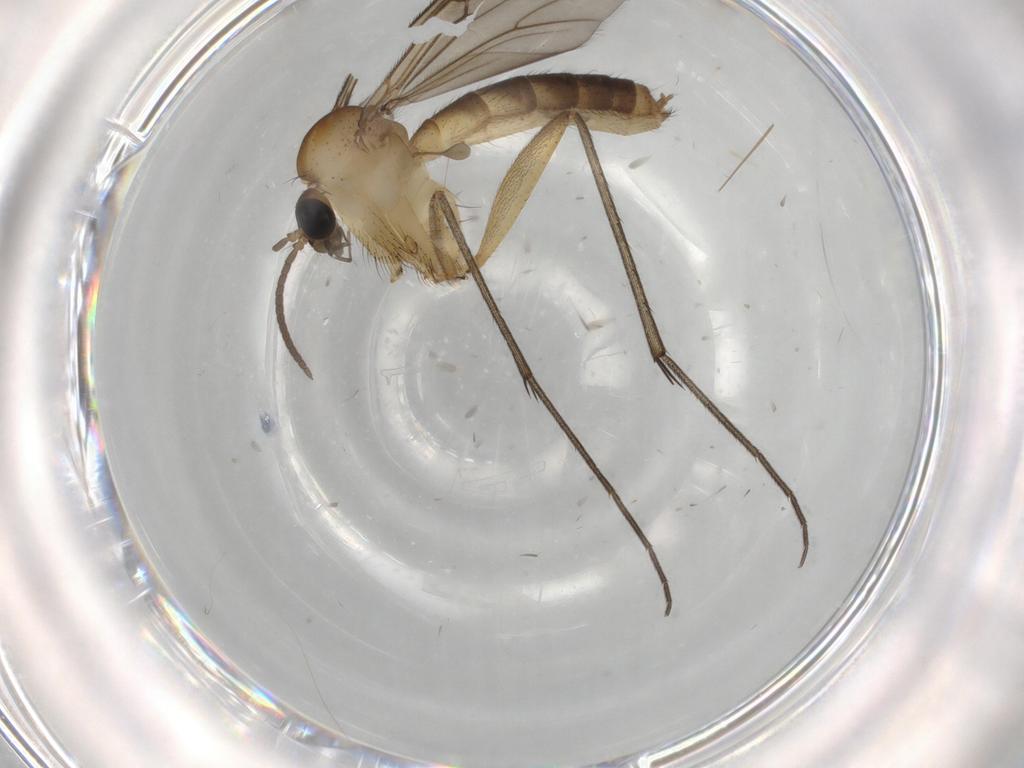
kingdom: Animalia
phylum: Arthropoda
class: Insecta
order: Diptera
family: Cecidomyiidae
